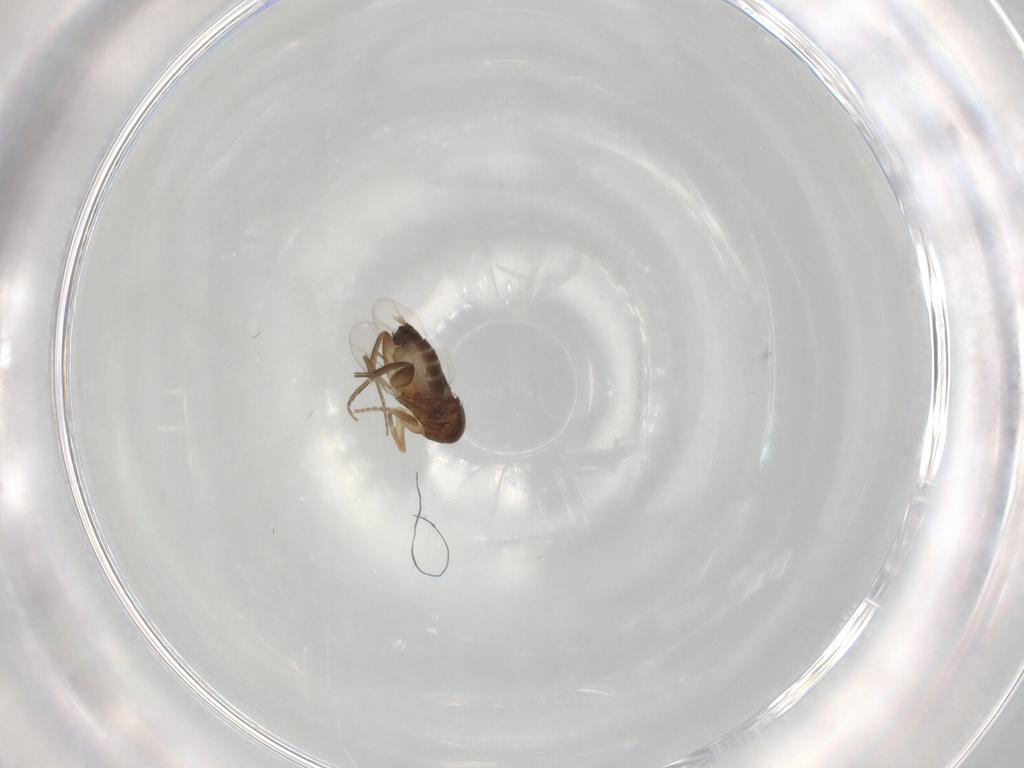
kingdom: Animalia
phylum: Arthropoda
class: Insecta
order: Diptera
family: Phoridae
